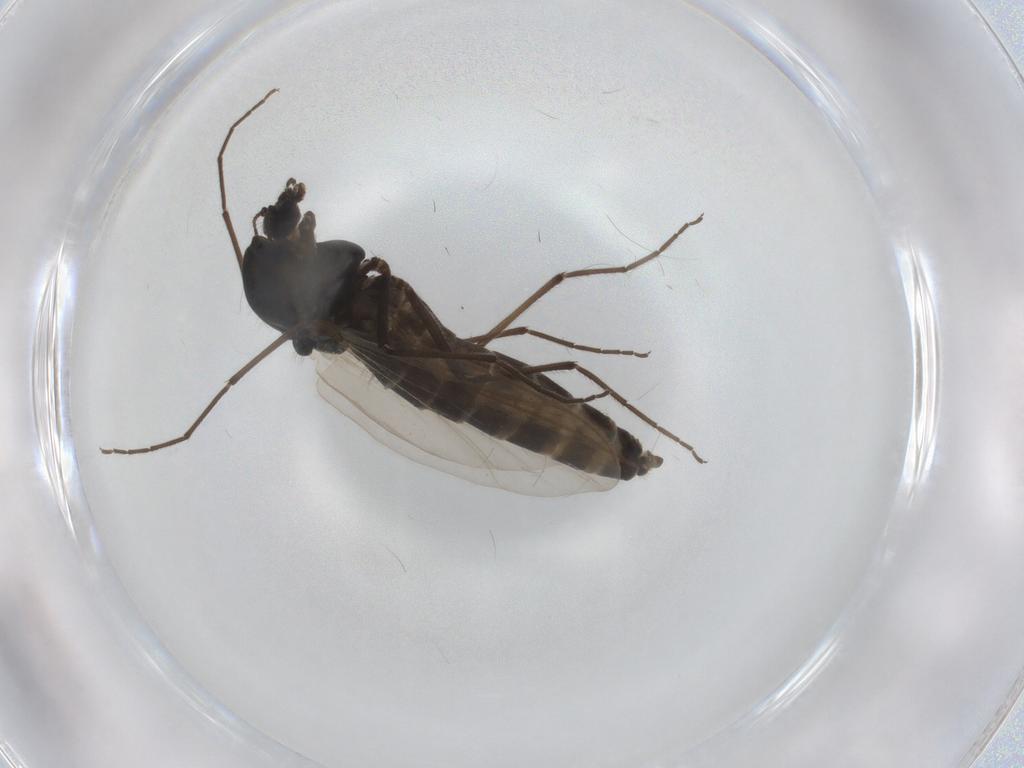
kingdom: Animalia
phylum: Arthropoda
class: Insecta
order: Diptera
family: Chironomidae
